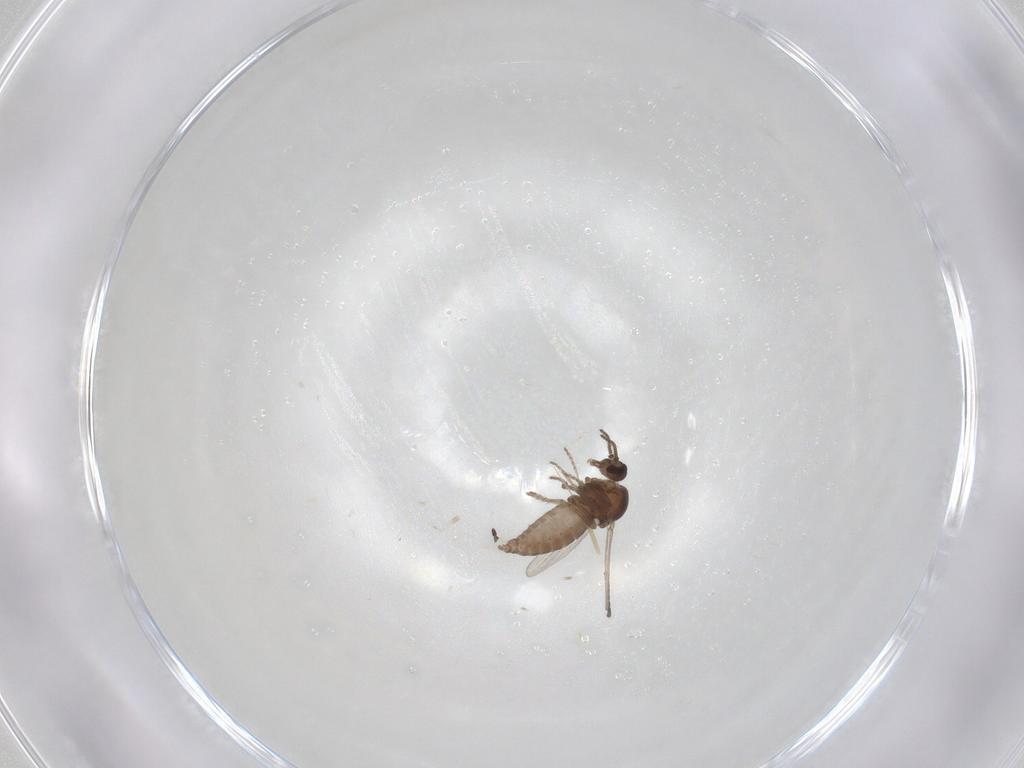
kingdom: Animalia
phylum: Arthropoda
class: Insecta
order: Diptera
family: Ceratopogonidae
